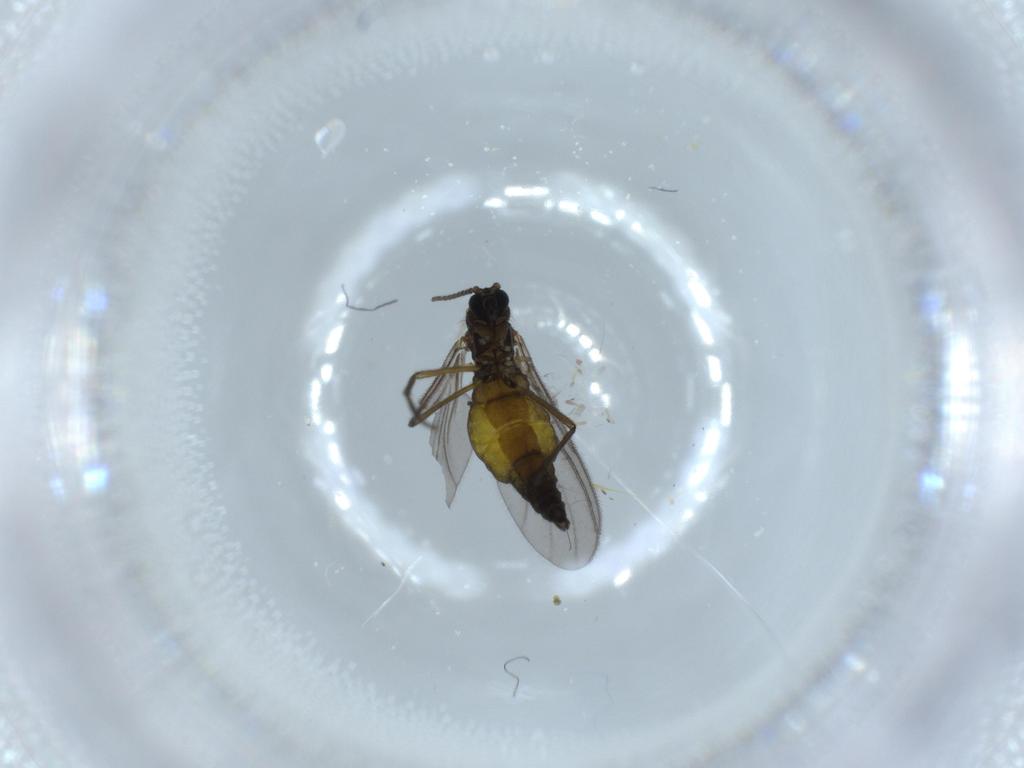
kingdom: Animalia
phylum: Arthropoda
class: Insecta
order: Diptera
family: Sciaridae
